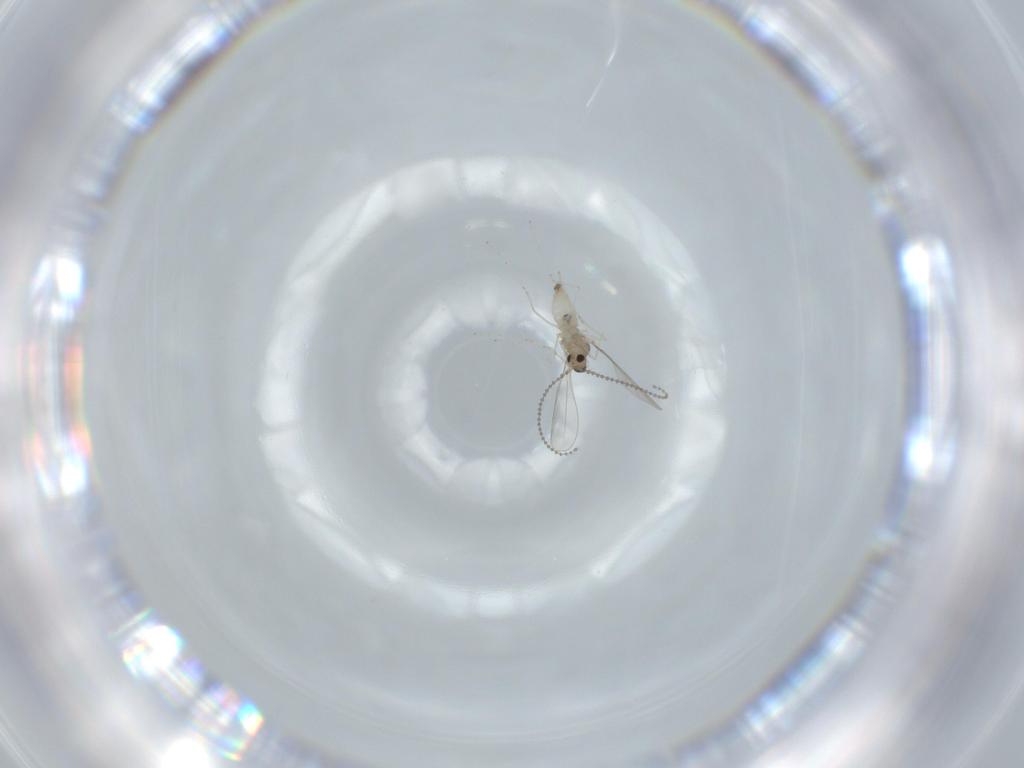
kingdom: Animalia
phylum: Arthropoda
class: Insecta
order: Diptera
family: Cecidomyiidae
